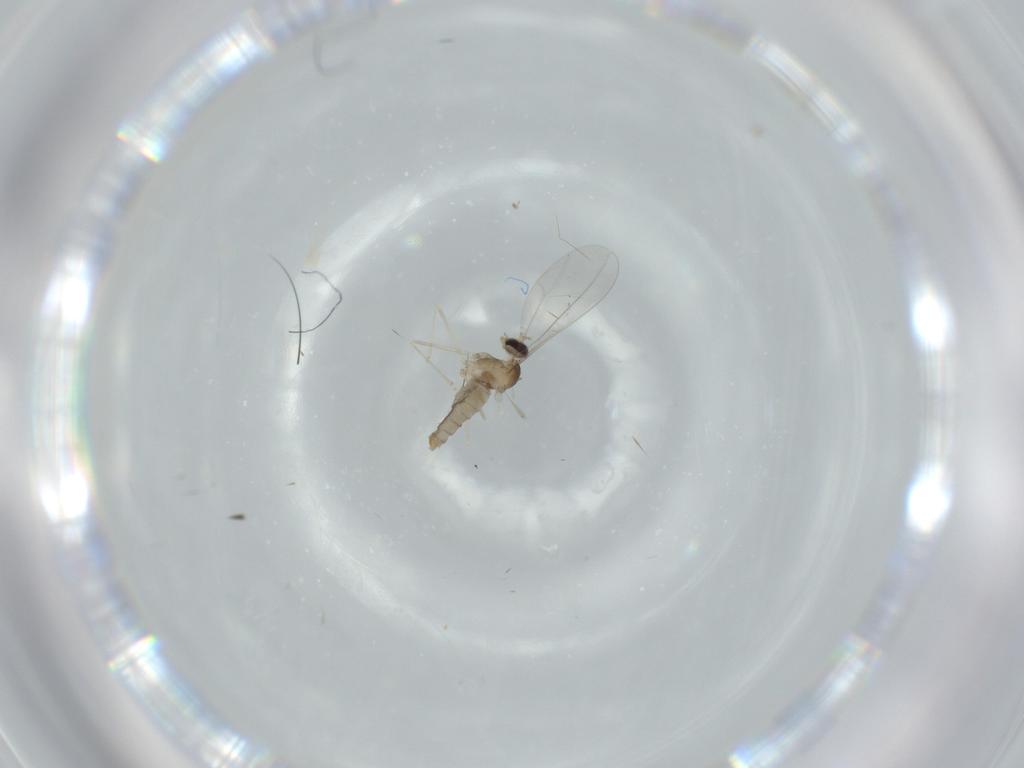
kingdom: Animalia
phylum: Arthropoda
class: Insecta
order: Diptera
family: Cecidomyiidae
